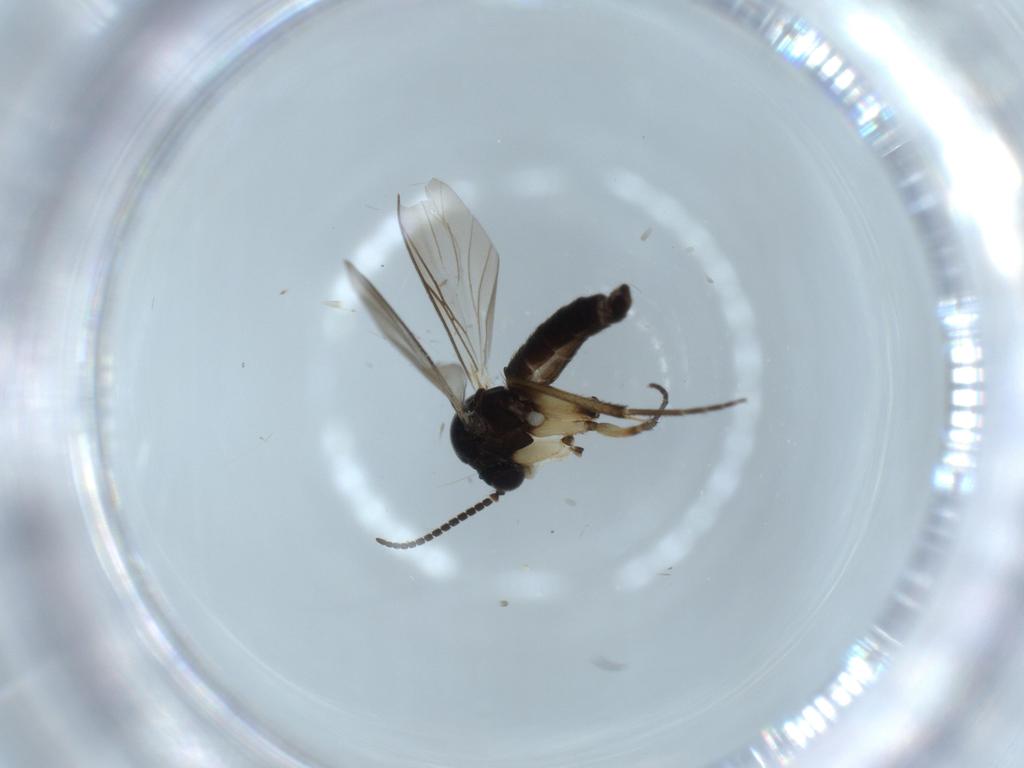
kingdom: Animalia
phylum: Arthropoda
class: Insecta
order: Diptera
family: Mycetophilidae
